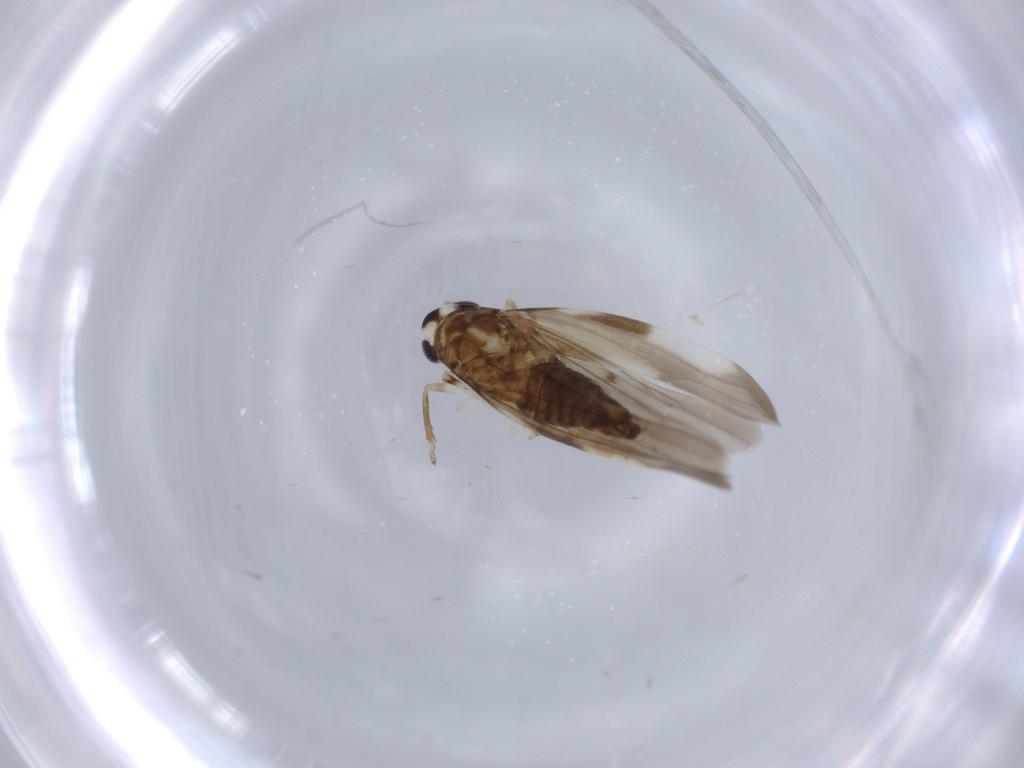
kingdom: Animalia
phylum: Arthropoda
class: Insecta
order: Hemiptera
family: Cicadellidae
